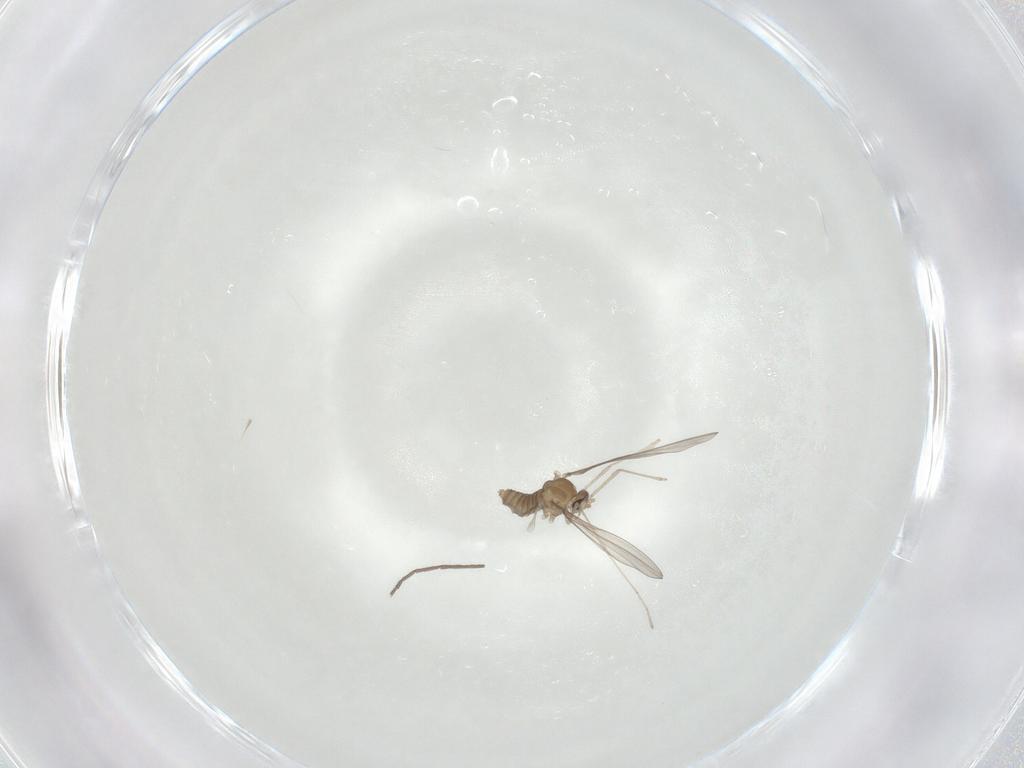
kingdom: Animalia
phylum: Arthropoda
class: Insecta
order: Diptera
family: Cecidomyiidae
